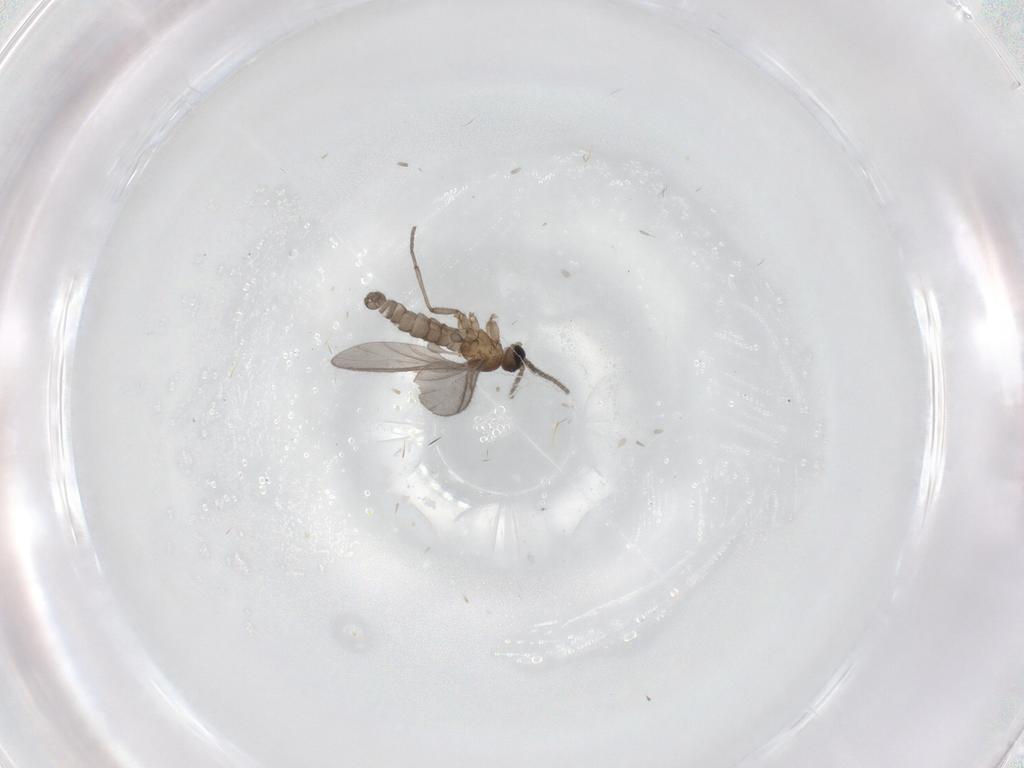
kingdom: Animalia
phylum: Arthropoda
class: Insecta
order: Diptera
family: Sciaridae
